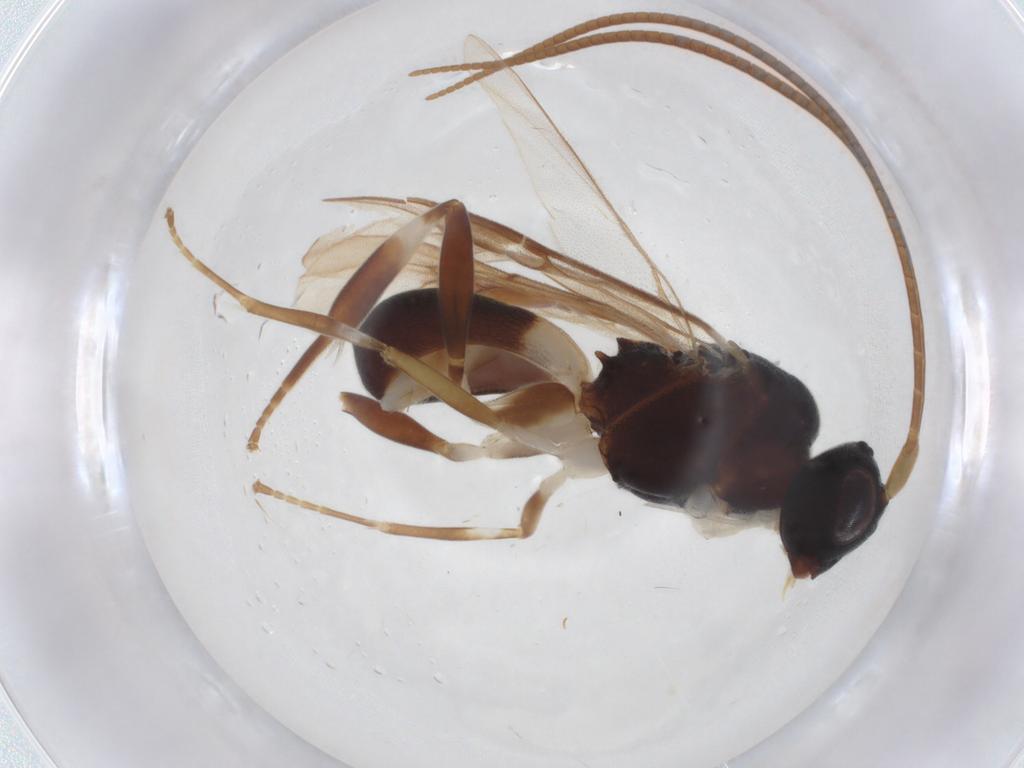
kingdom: Animalia
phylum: Arthropoda
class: Insecta
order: Hymenoptera
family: Braconidae
